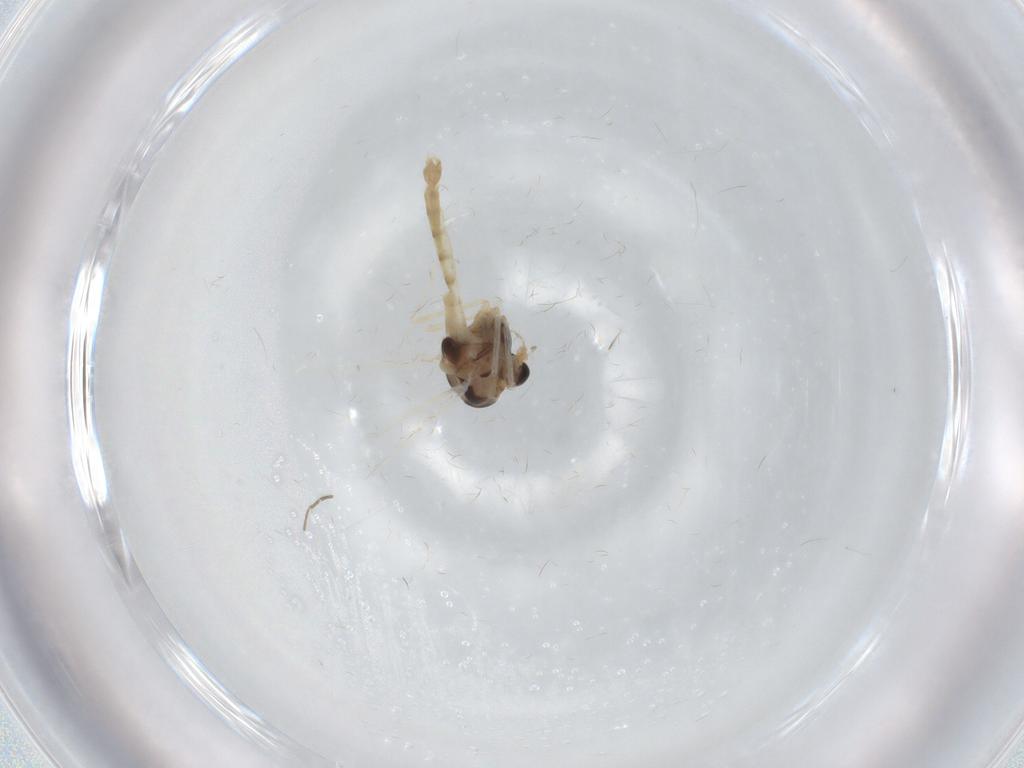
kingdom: Animalia
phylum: Arthropoda
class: Insecta
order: Diptera
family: Chironomidae
